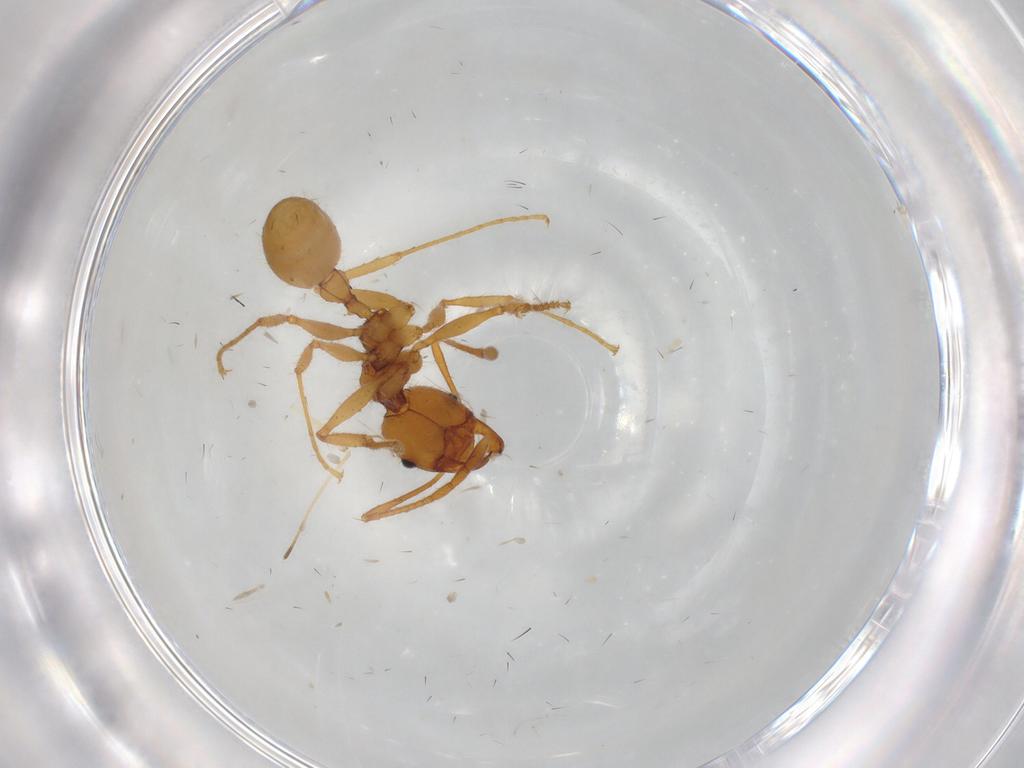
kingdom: Animalia
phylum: Arthropoda
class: Insecta
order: Hymenoptera
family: Formicidae
